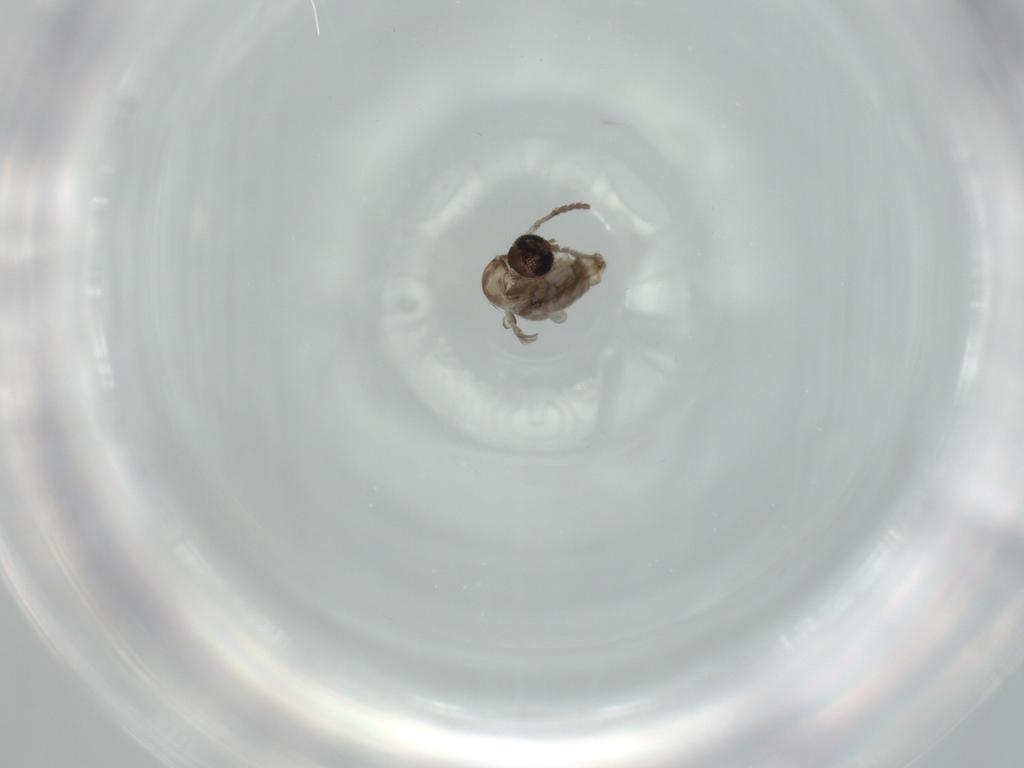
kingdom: Animalia
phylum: Arthropoda
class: Insecta
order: Diptera
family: Psychodidae
